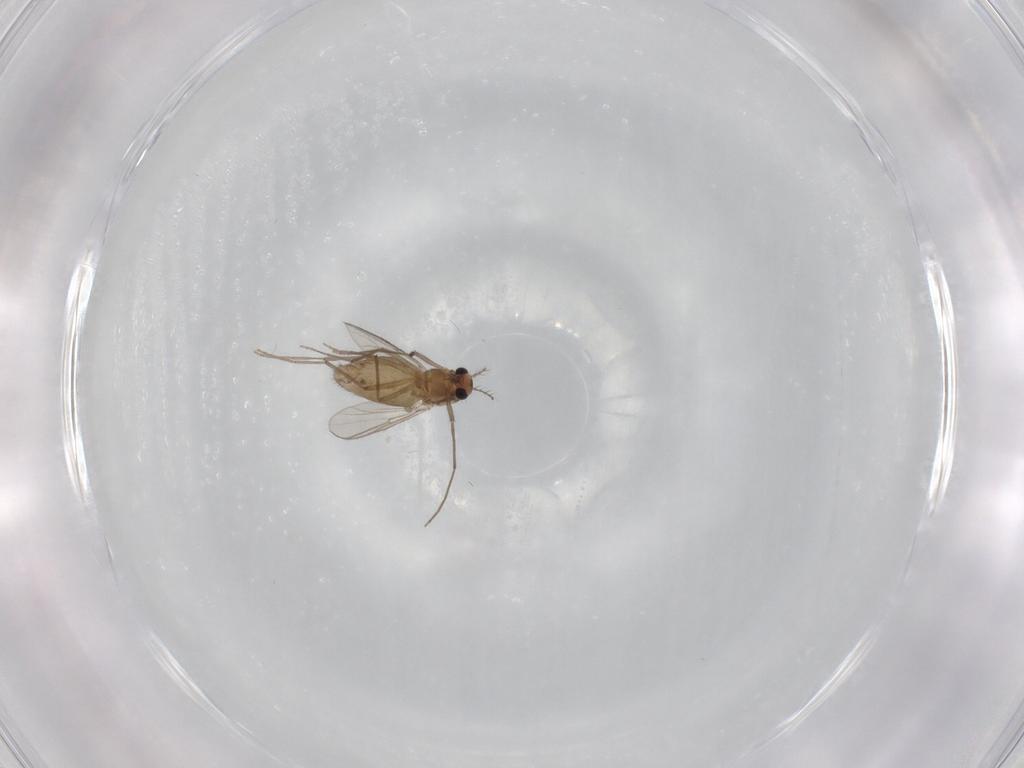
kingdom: Animalia
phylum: Arthropoda
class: Insecta
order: Diptera
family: Chironomidae
